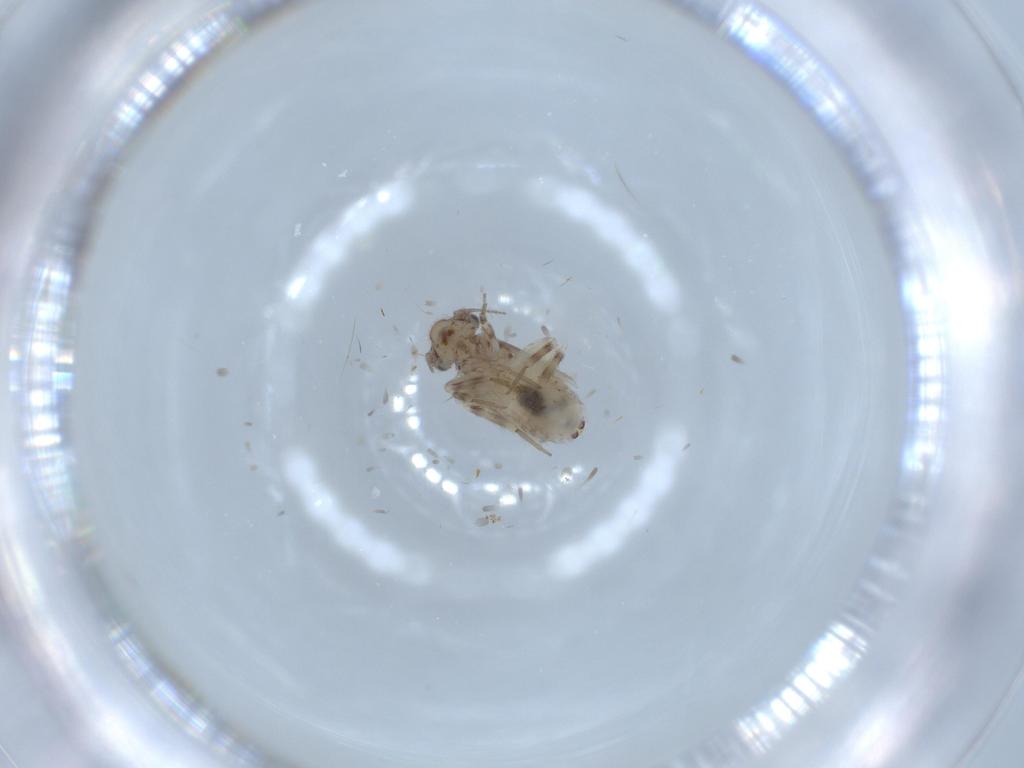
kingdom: Animalia
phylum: Arthropoda
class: Insecta
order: Psocodea
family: Lepidopsocidae
